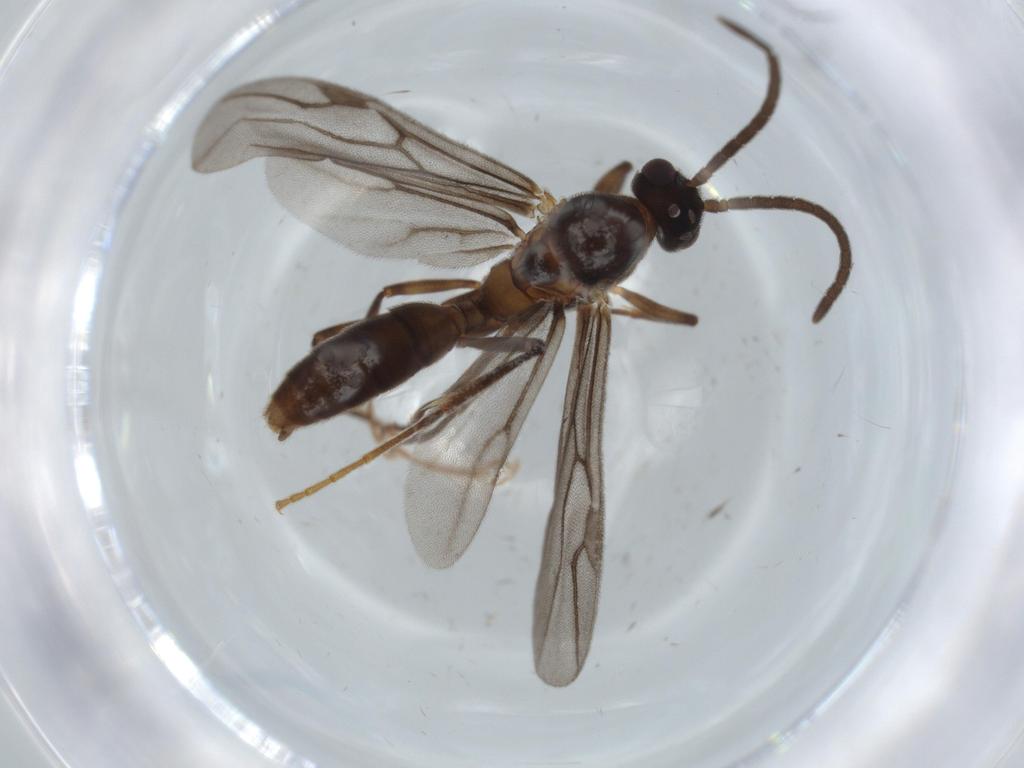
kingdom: Animalia
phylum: Arthropoda
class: Insecta
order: Hymenoptera
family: Formicidae
